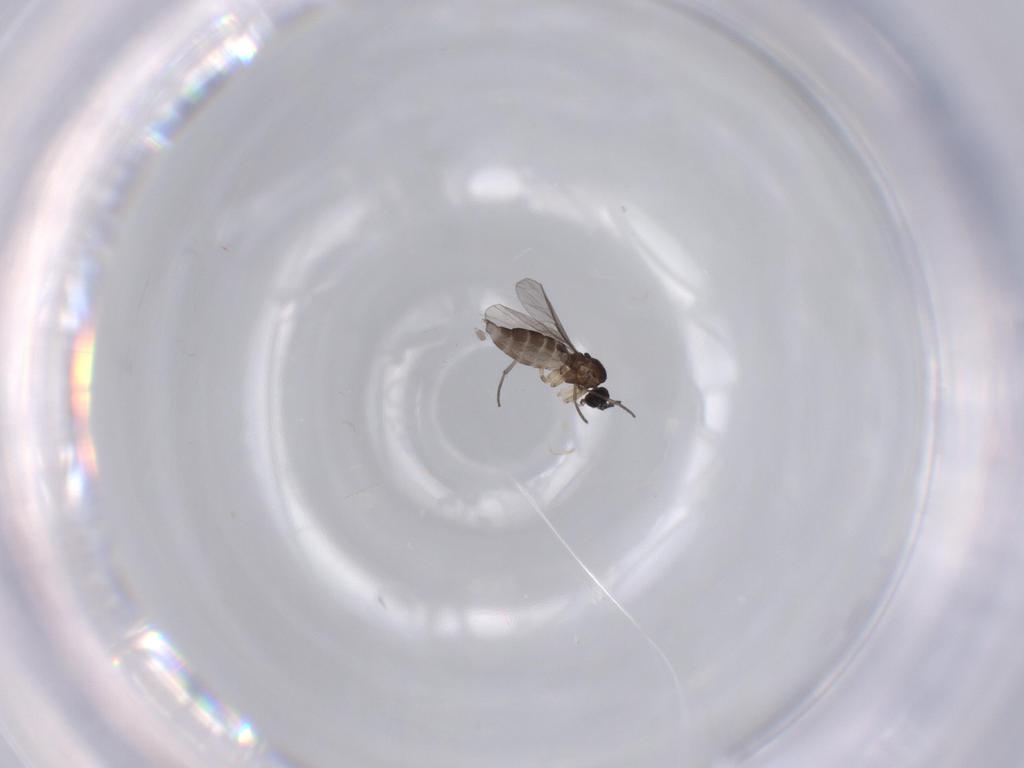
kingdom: Animalia
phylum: Arthropoda
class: Insecta
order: Diptera
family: Sciaridae
